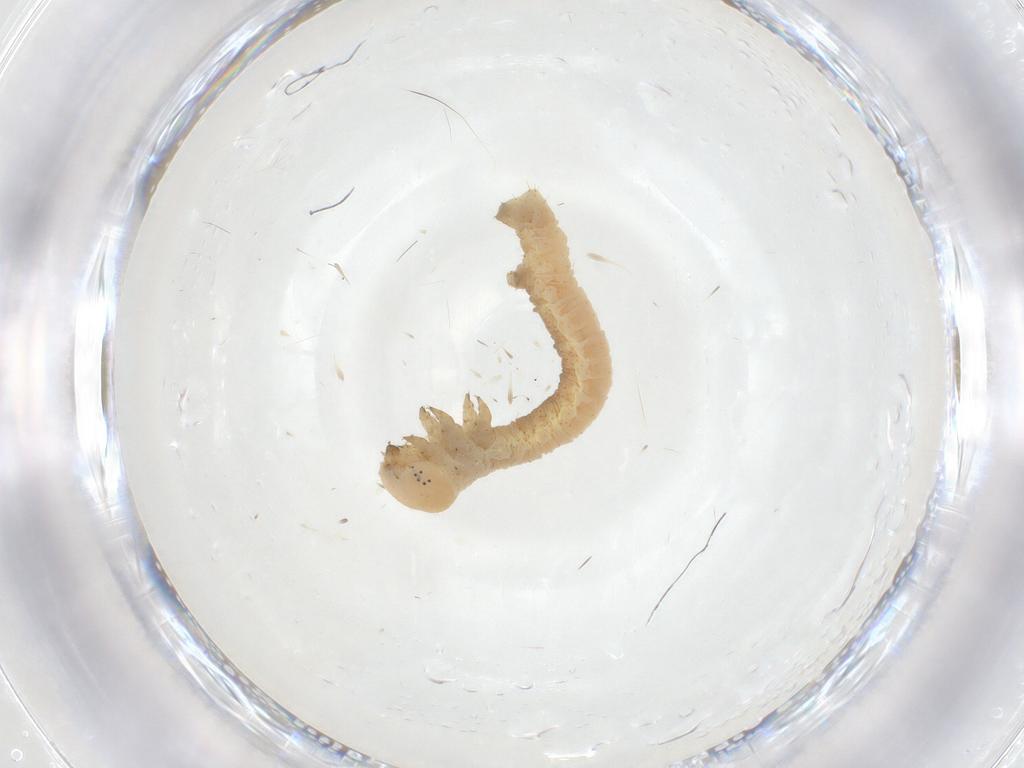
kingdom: Animalia
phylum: Arthropoda
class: Insecta
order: Lepidoptera
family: Geometridae
